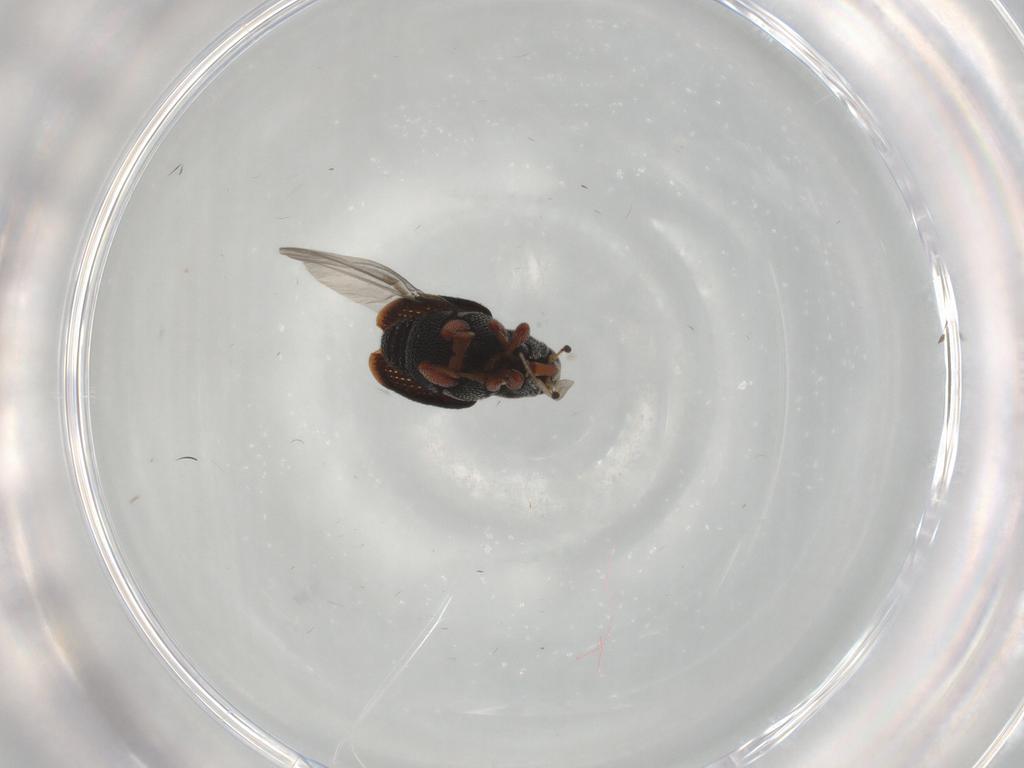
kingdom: Animalia
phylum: Arthropoda
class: Insecta
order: Coleoptera
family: Curculionidae
